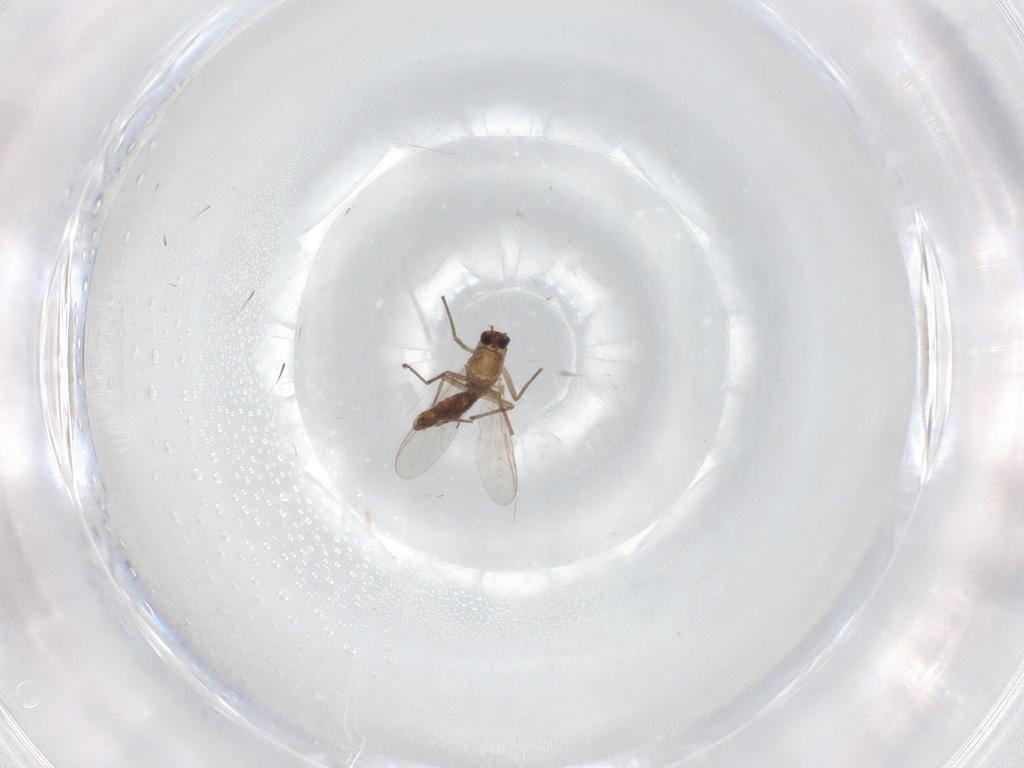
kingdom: Animalia
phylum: Arthropoda
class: Insecta
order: Diptera
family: Chironomidae
